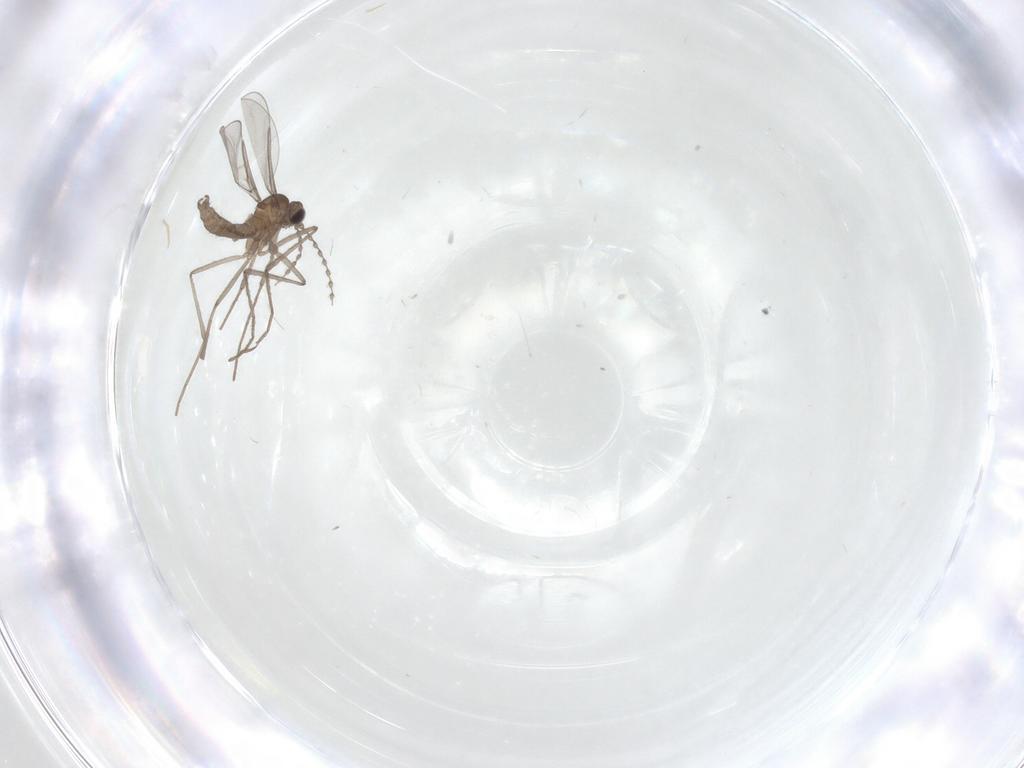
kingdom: Animalia
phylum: Arthropoda
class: Insecta
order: Diptera
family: Cecidomyiidae
